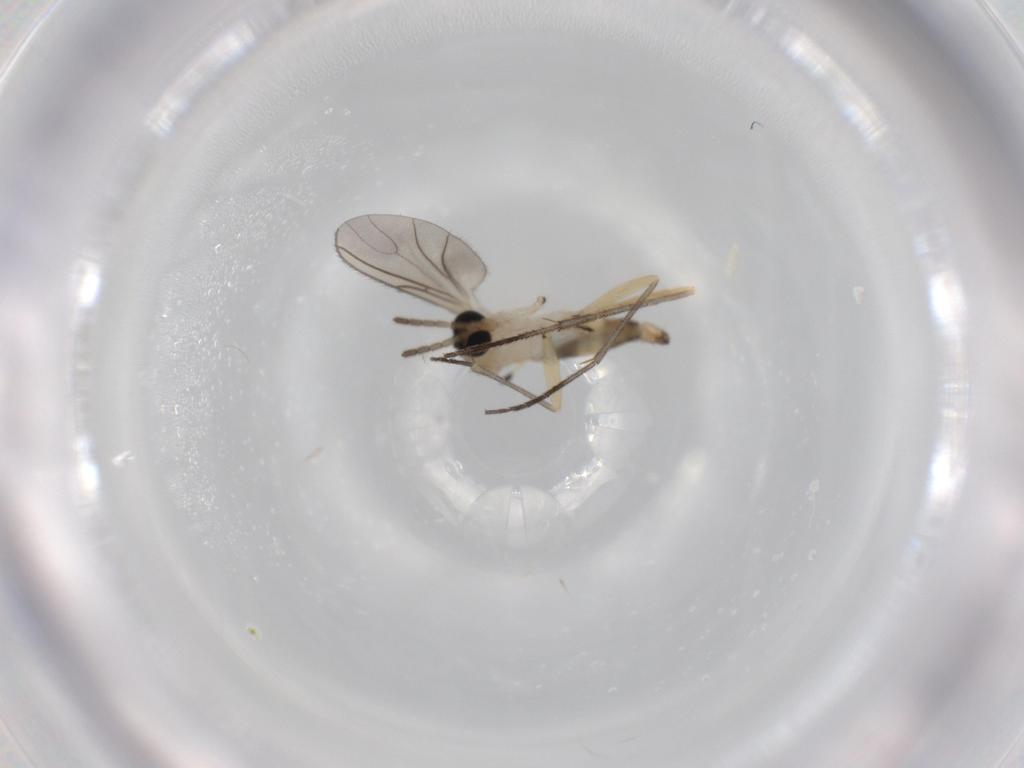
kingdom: Animalia
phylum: Arthropoda
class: Insecta
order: Diptera
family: Sciaridae
